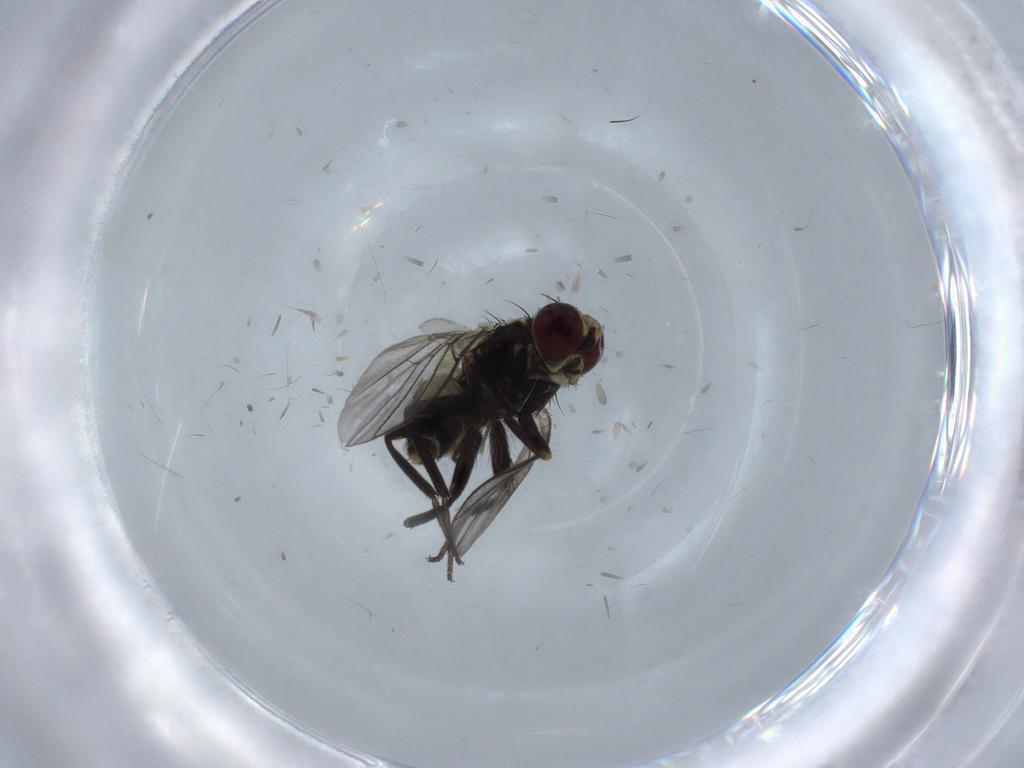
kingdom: Animalia
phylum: Arthropoda
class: Insecta
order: Diptera
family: Agromyzidae
